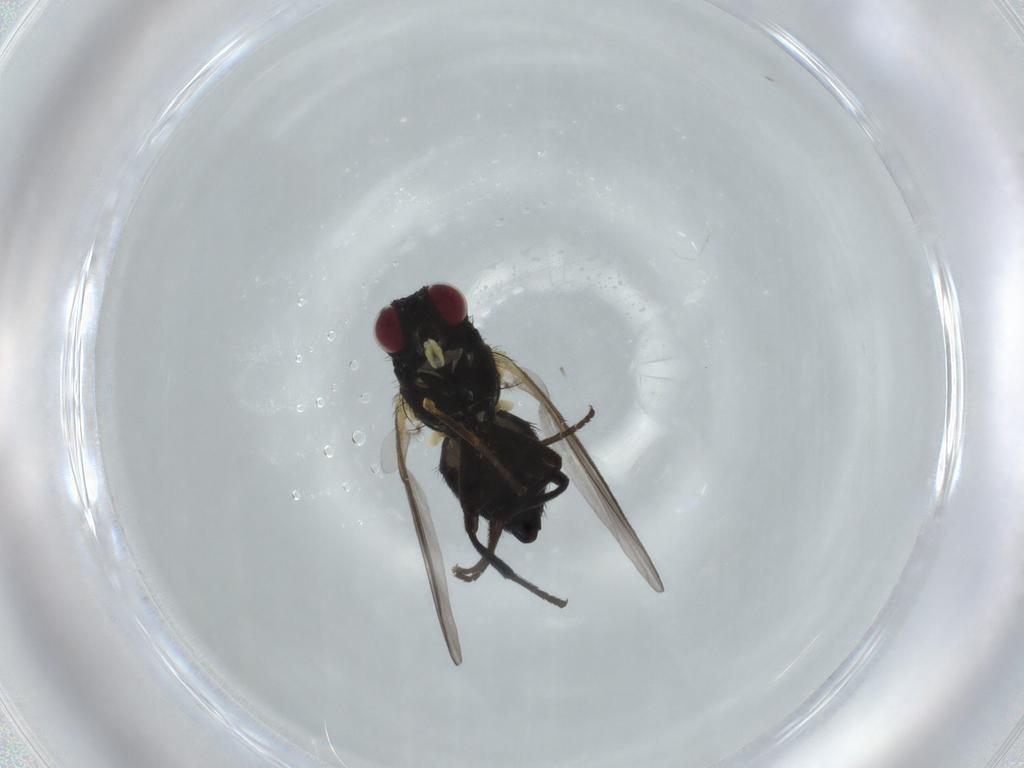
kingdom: Animalia
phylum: Arthropoda
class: Insecta
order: Diptera
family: Agromyzidae
